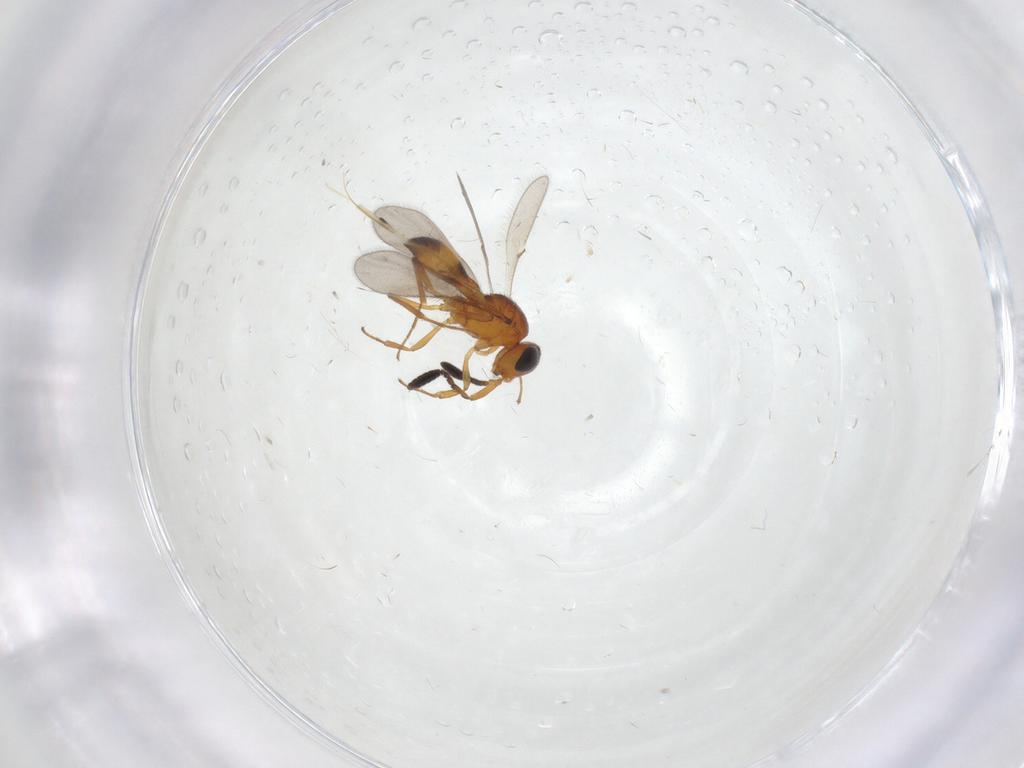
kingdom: Animalia
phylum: Arthropoda
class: Insecta
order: Hymenoptera
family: Scelionidae
